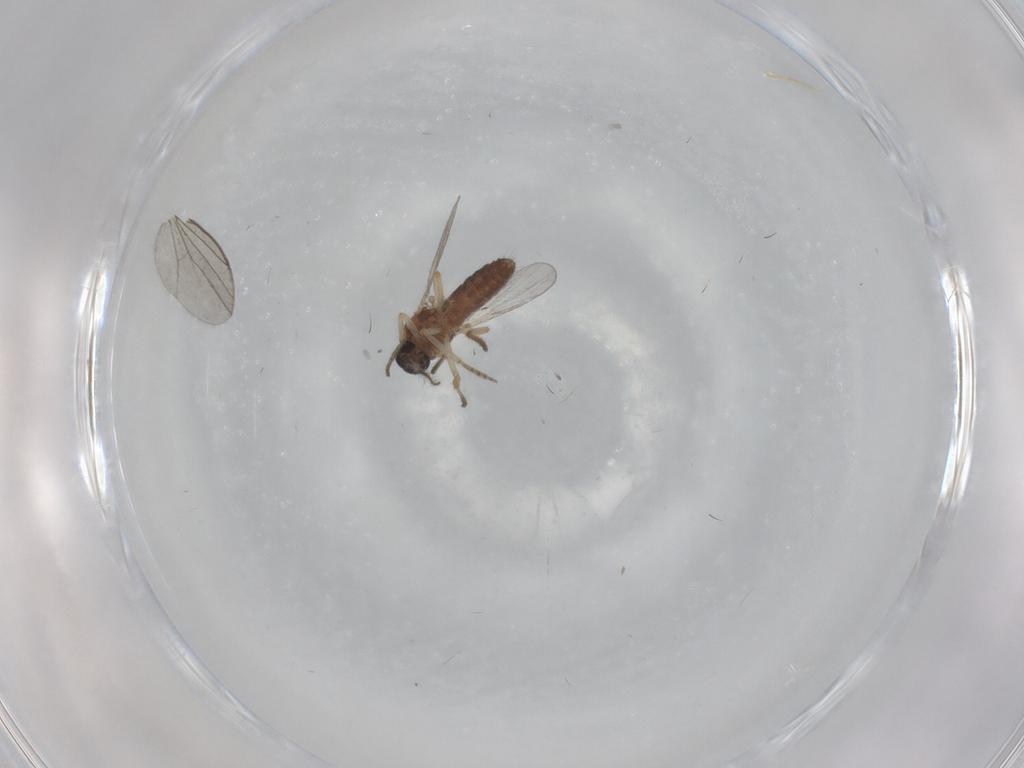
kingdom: Animalia
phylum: Arthropoda
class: Insecta
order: Diptera
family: Ceratopogonidae
